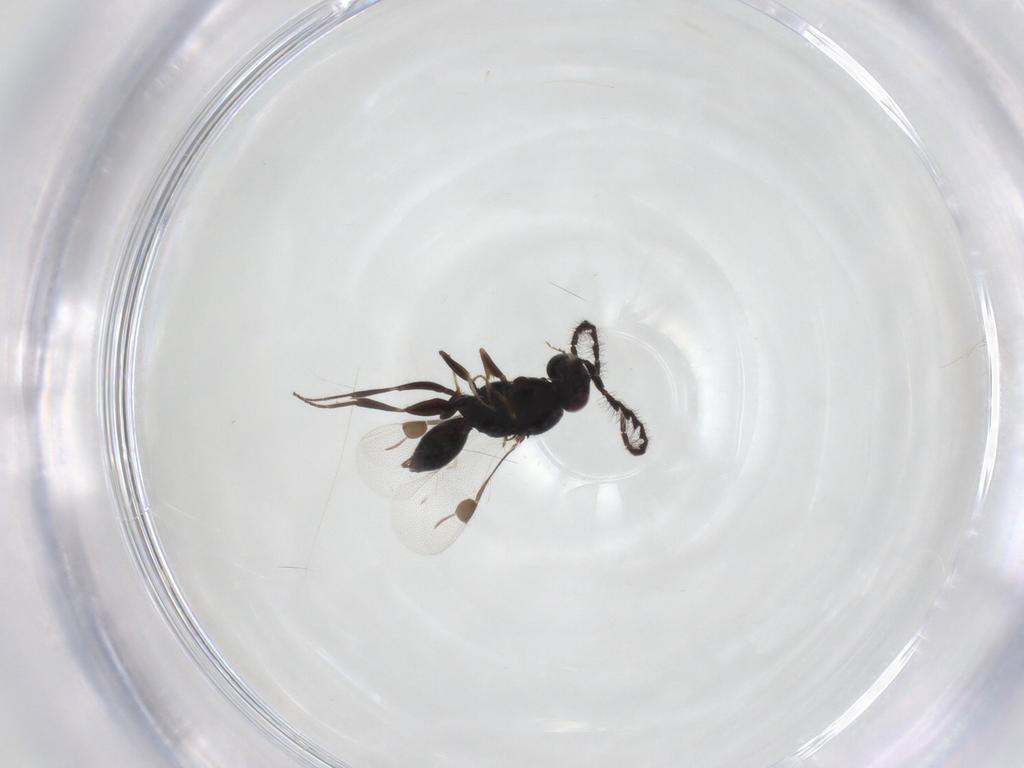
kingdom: Animalia
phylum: Arthropoda
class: Insecta
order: Hymenoptera
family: Megaspilidae
